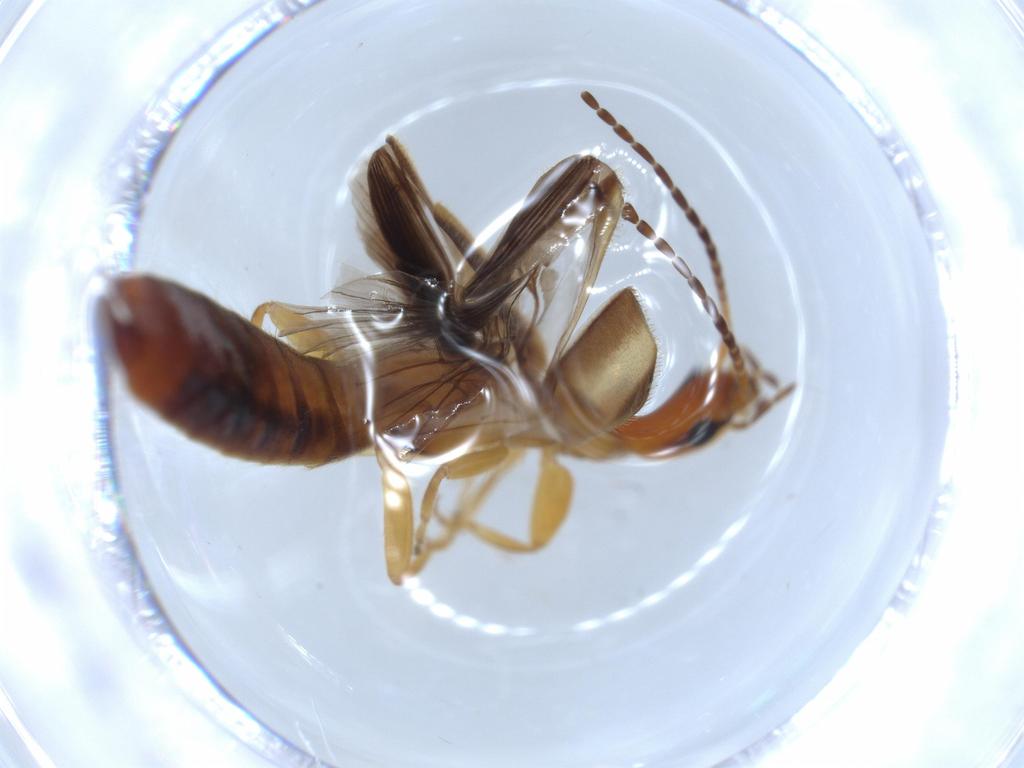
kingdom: Animalia
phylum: Arthropoda
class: Insecta
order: Dermaptera
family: Forficulidae
